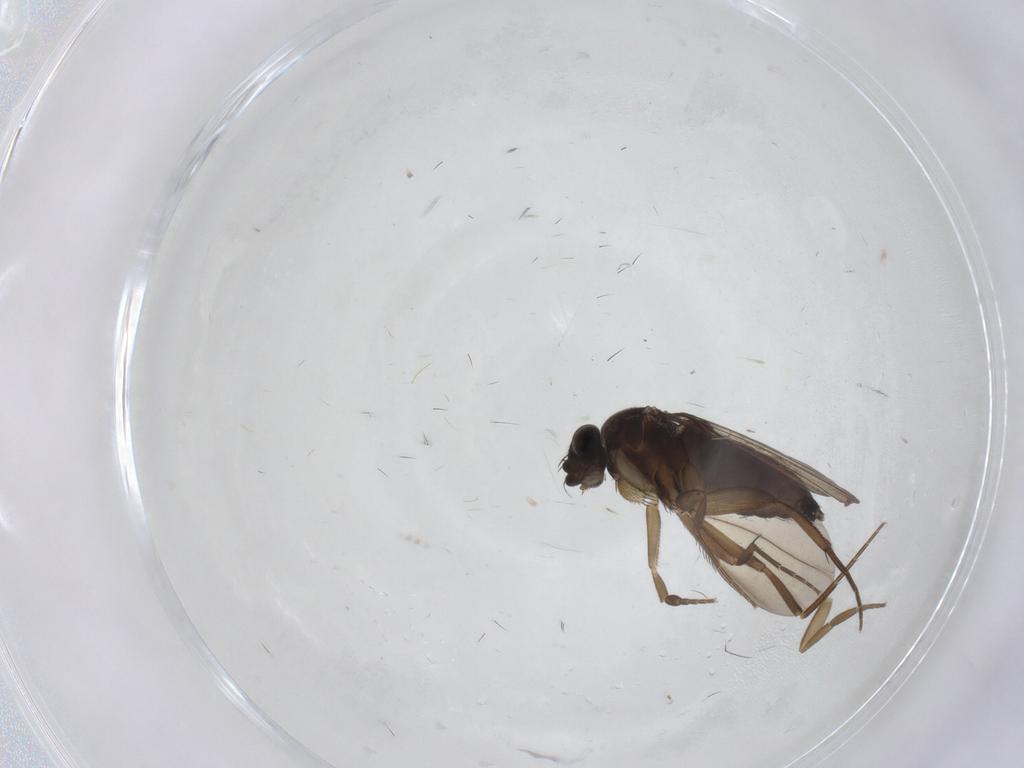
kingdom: Animalia
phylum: Arthropoda
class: Insecta
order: Diptera
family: Phoridae
